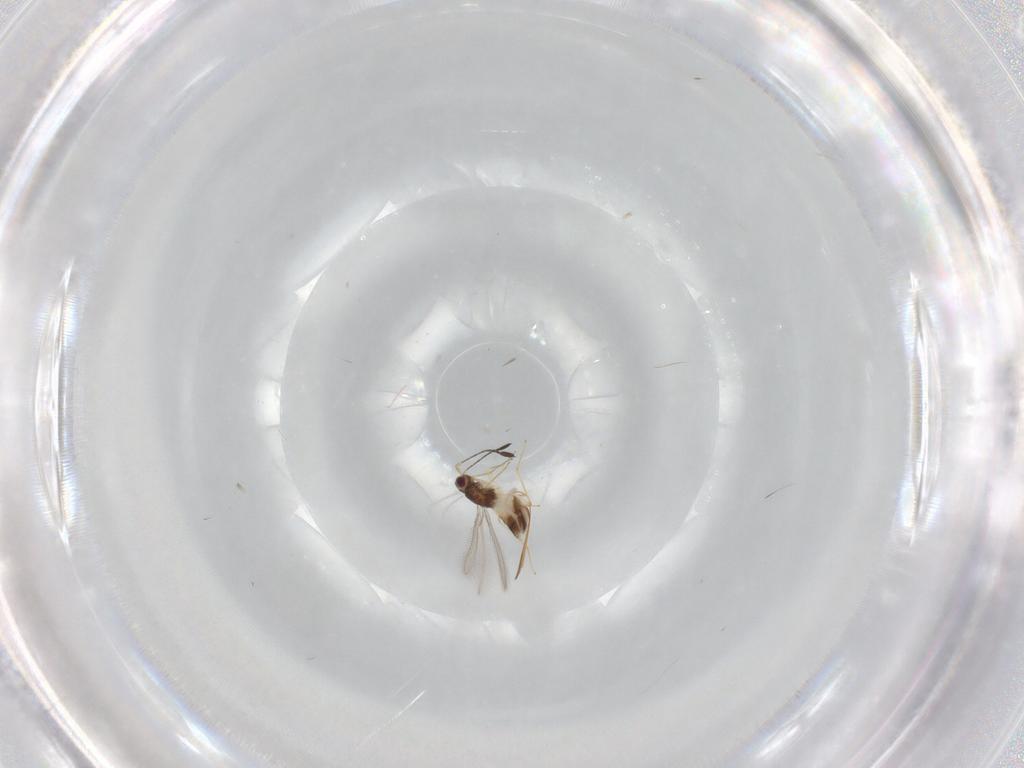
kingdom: Animalia
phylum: Arthropoda
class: Insecta
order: Hymenoptera
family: Mymaridae
